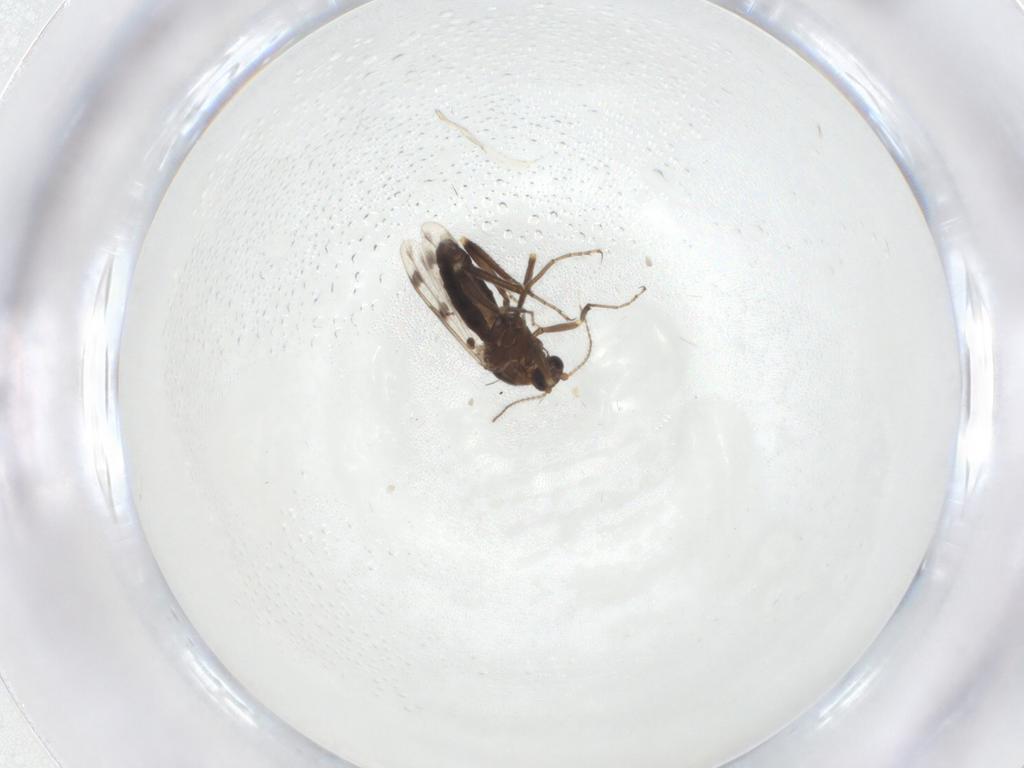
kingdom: Animalia
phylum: Arthropoda
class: Insecta
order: Diptera
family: Ceratopogonidae
